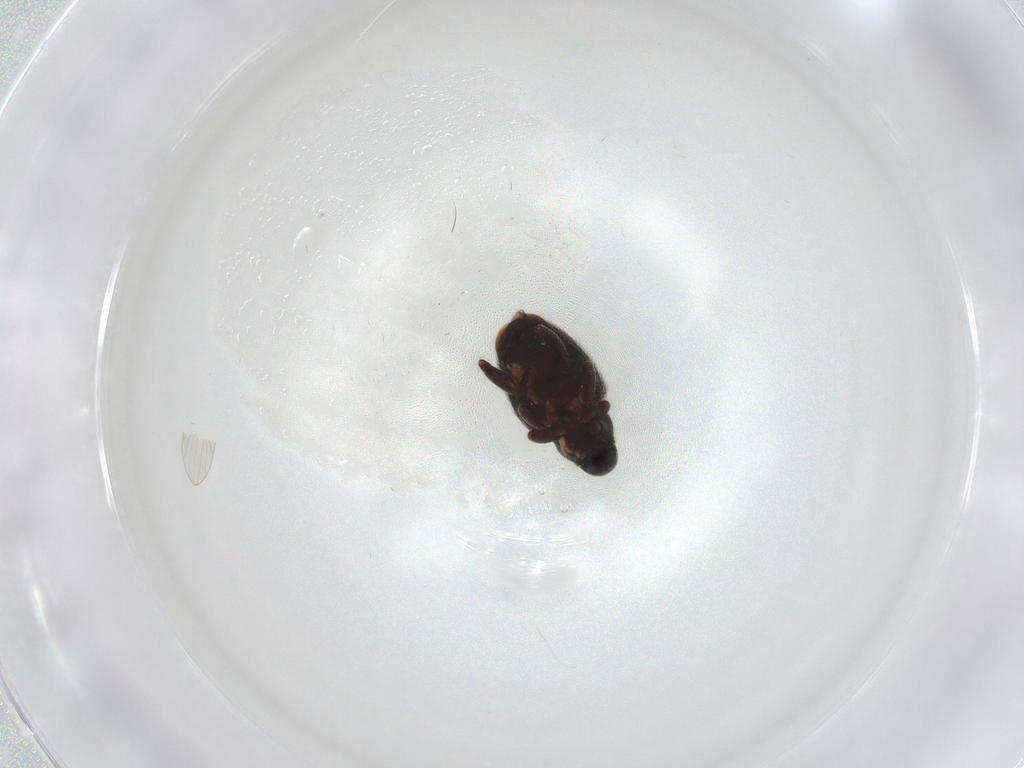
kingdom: Animalia
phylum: Arthropoda
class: Insecta
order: Coleoptera
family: Curculionidae
